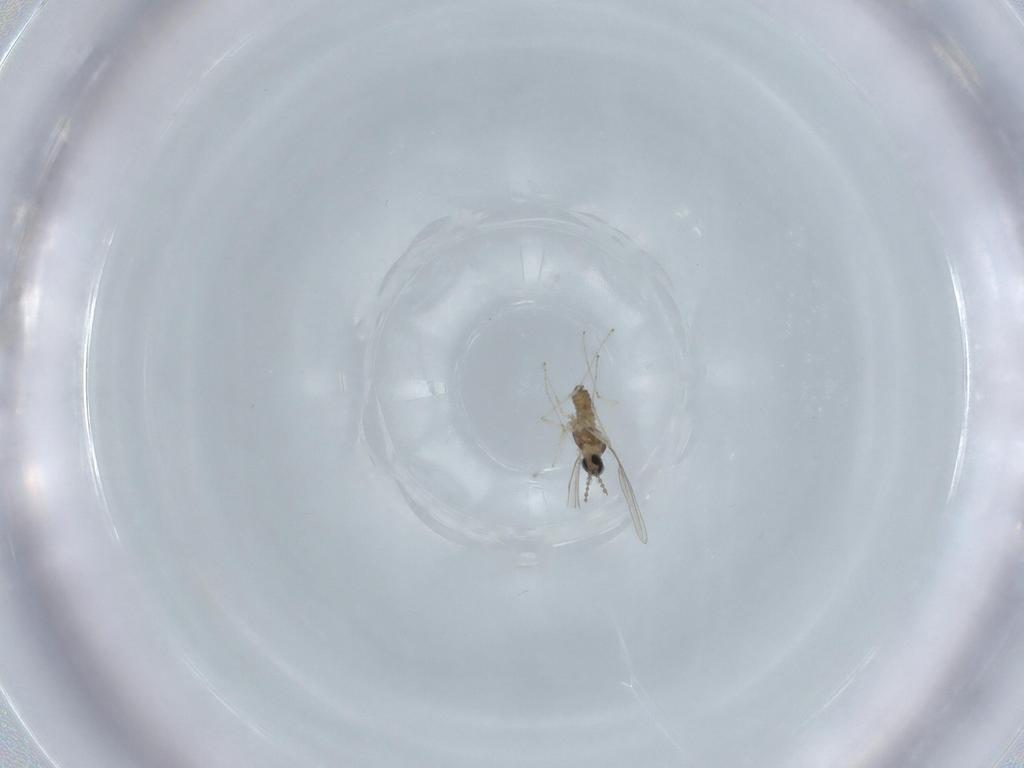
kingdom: Animalia
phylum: Arthropoda
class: Insecta
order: Diptera
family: Cecidomyiidae
